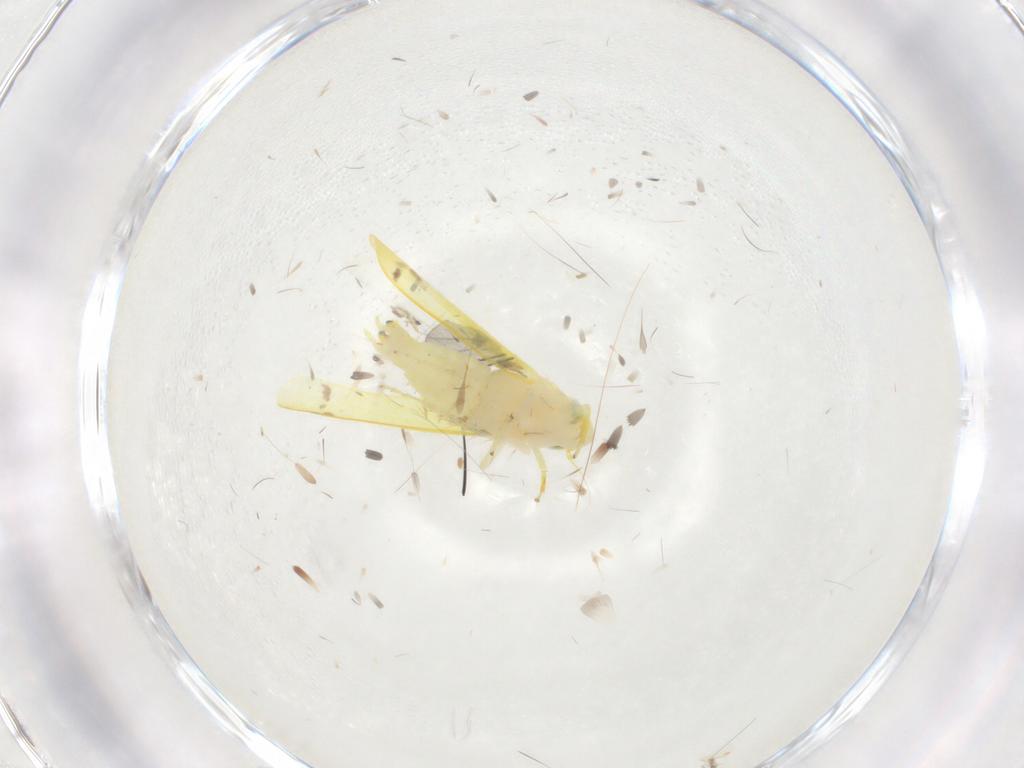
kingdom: Animalia
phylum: Arthropoda
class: Insecta
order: Hemiptera
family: Cicadellidae
